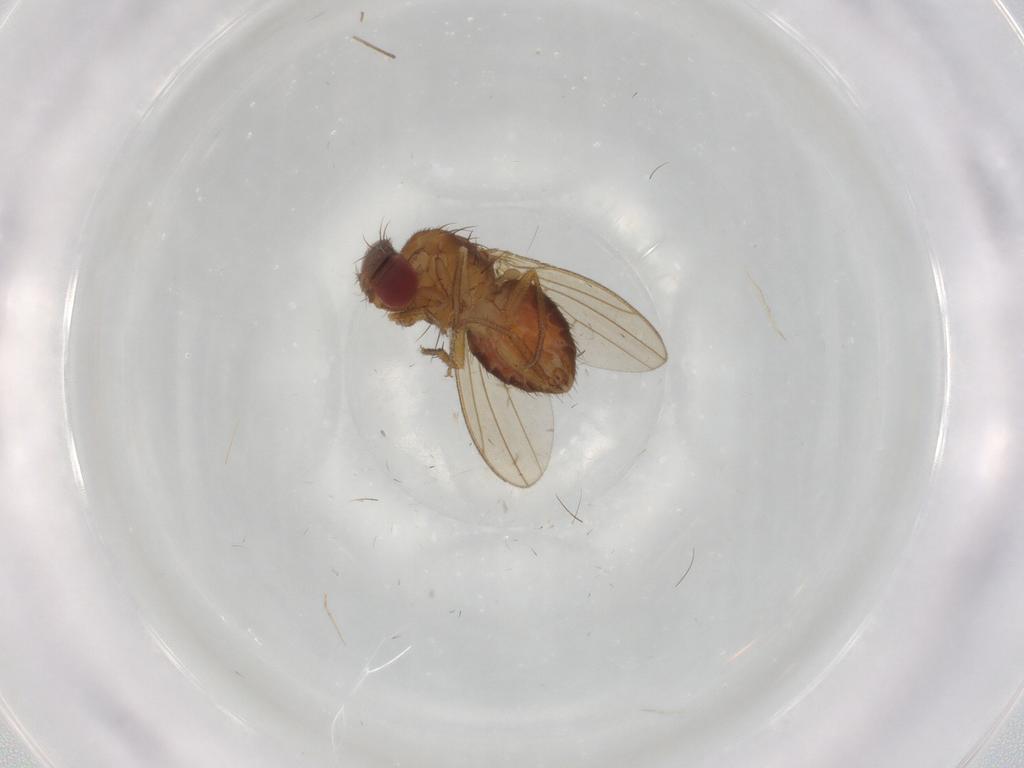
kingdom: Animalia
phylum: Arthropoda
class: Insecta
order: Diptera
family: Drosophilidae
